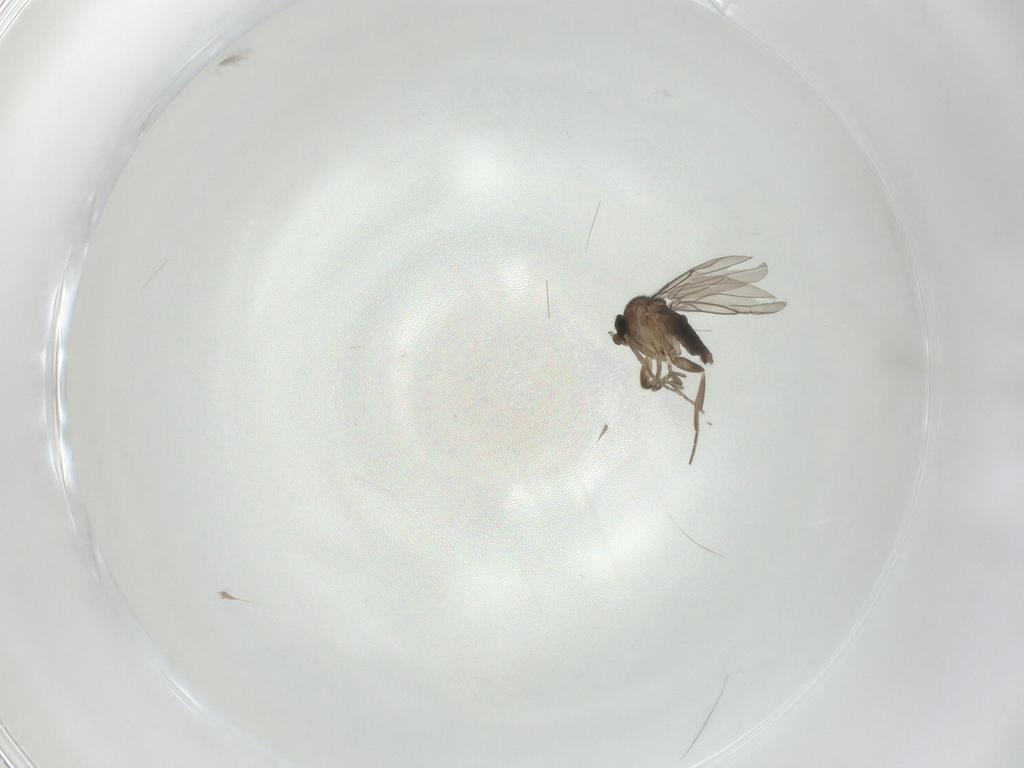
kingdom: Animalia
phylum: Arthropoda
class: Insecta
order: Diptera
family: Phoridae
